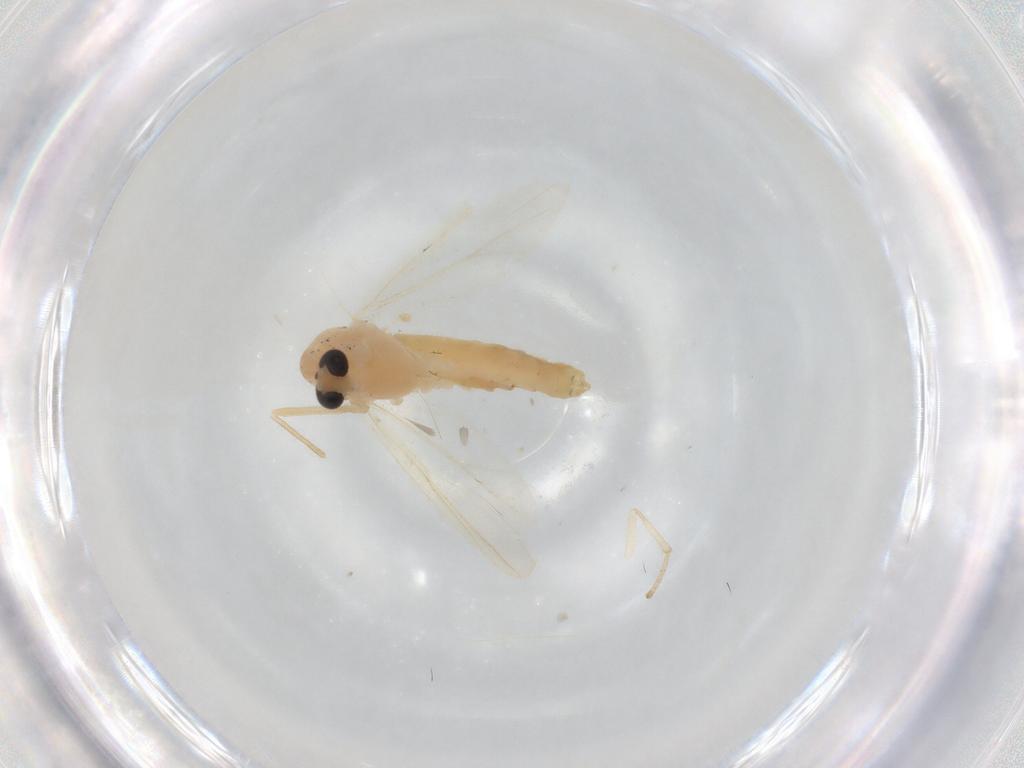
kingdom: Animalia
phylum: Arthropoda
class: Insecta
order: Diptera
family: Chironomidae
